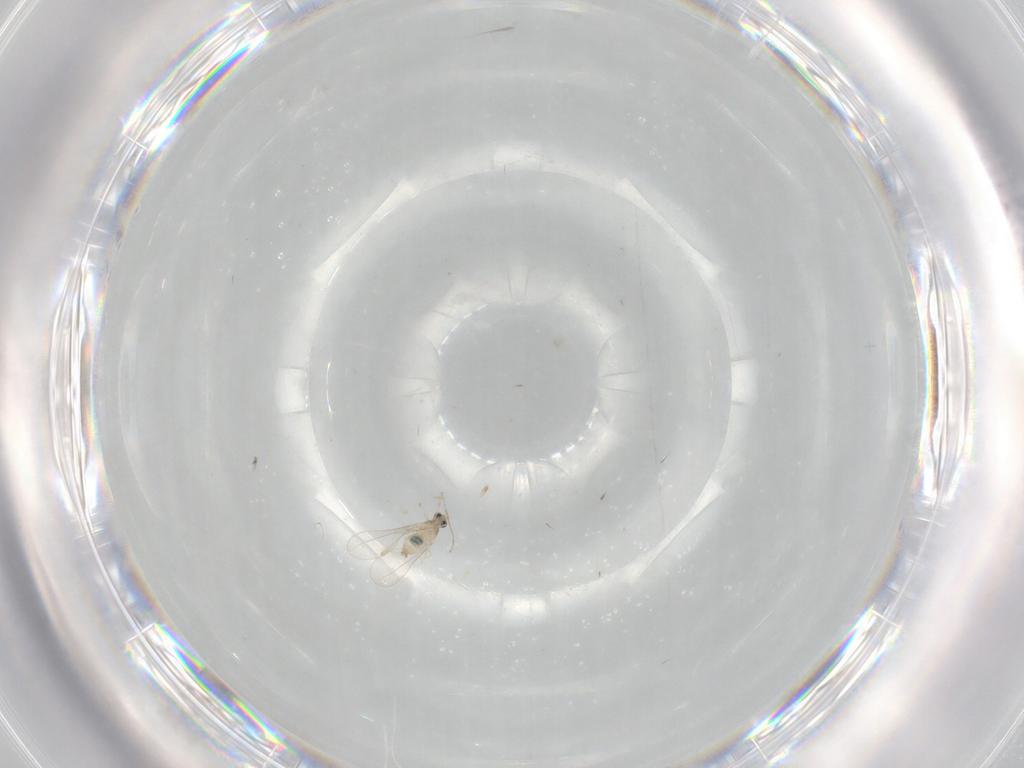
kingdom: Animalia
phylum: Arthropoda
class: Insecta
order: Diptera
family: Cecidomyiidae
